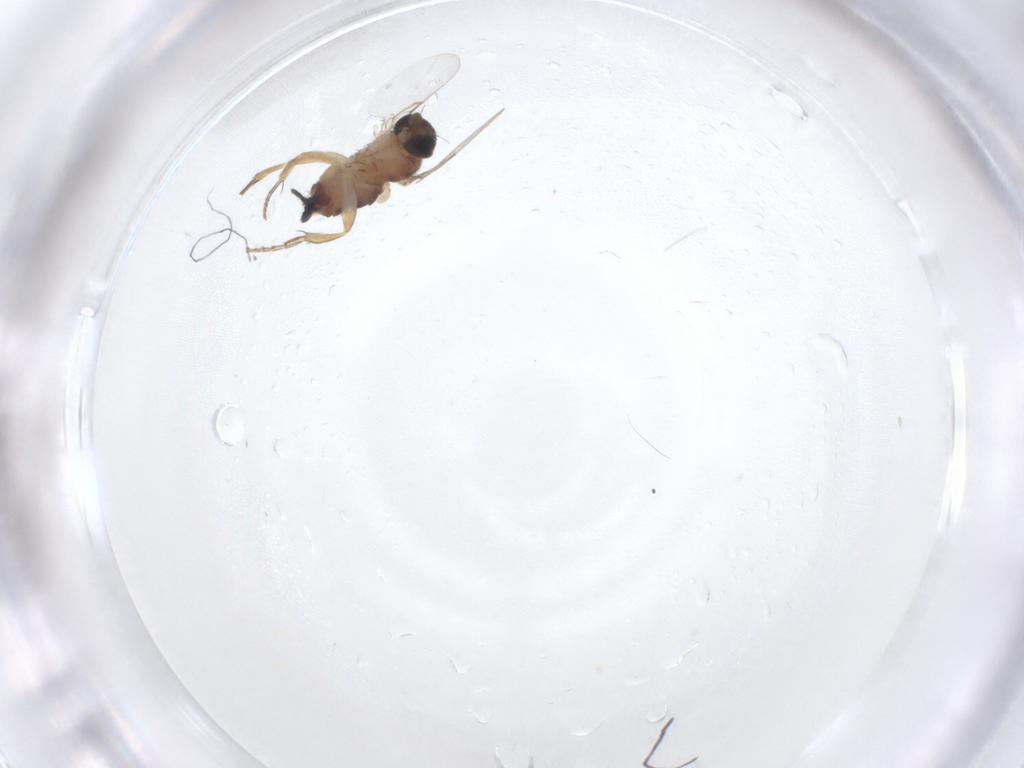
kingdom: Animalia
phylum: Arthropoda
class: Insecta
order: Diptera
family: Phoridae
